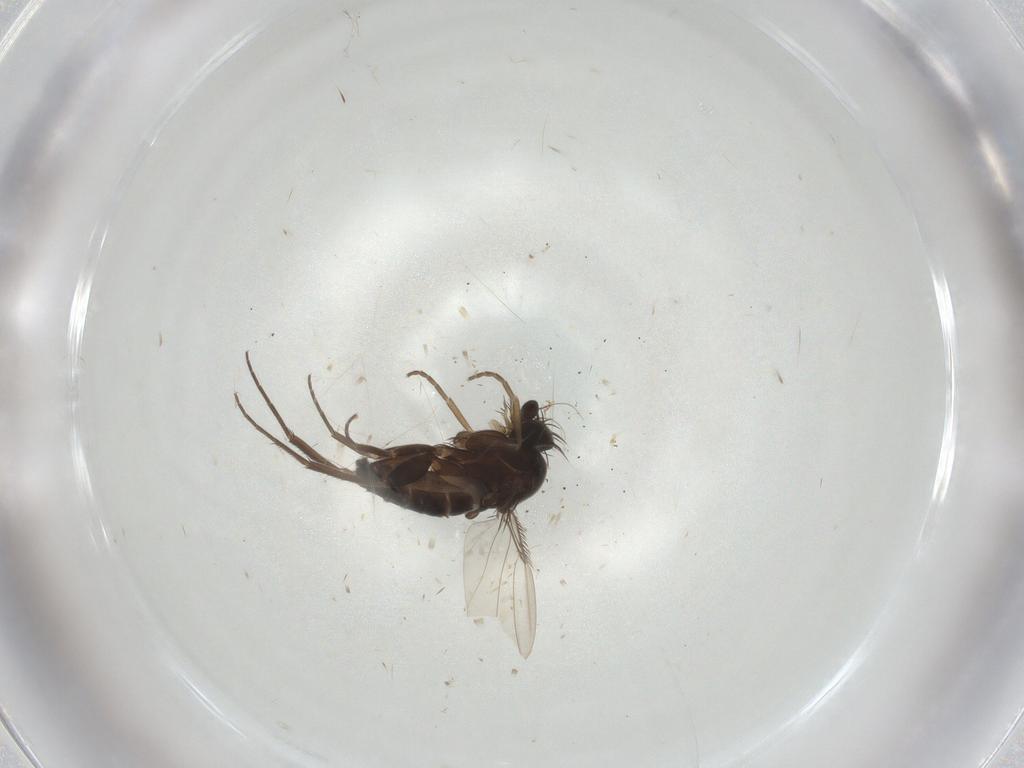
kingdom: Animalia
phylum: Arthropoda
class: Insecta
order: Diptera
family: Phoridae
